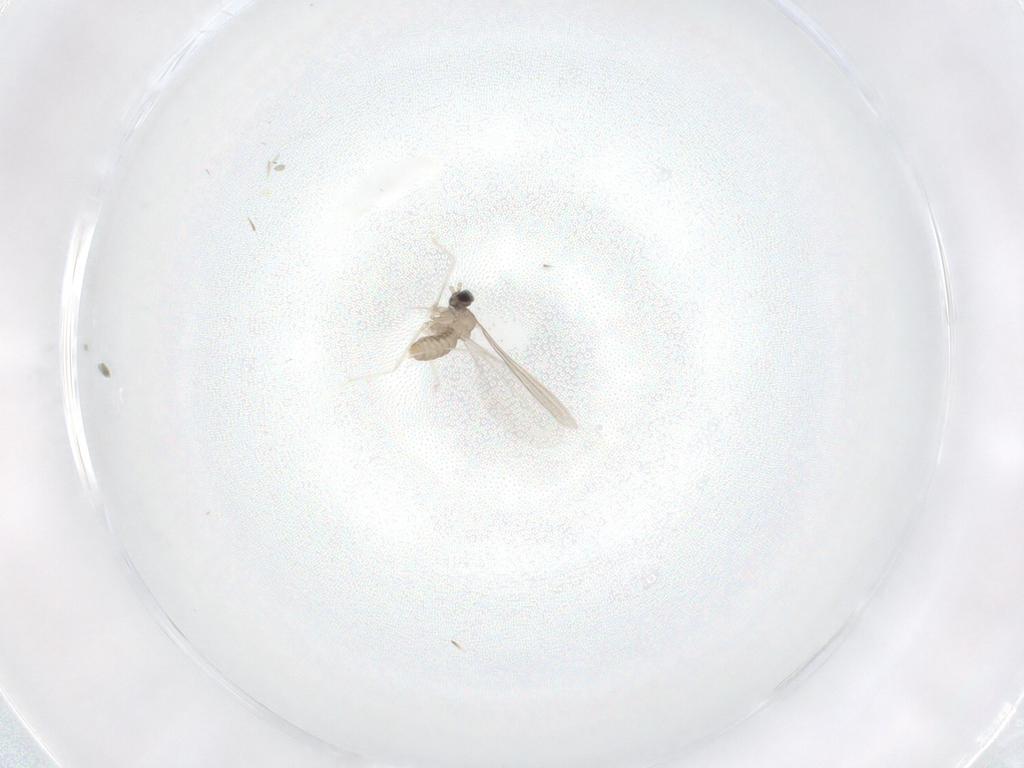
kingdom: Animalia
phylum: Arthropoda
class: Insecta
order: Diptera
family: Cecidomyiidae
